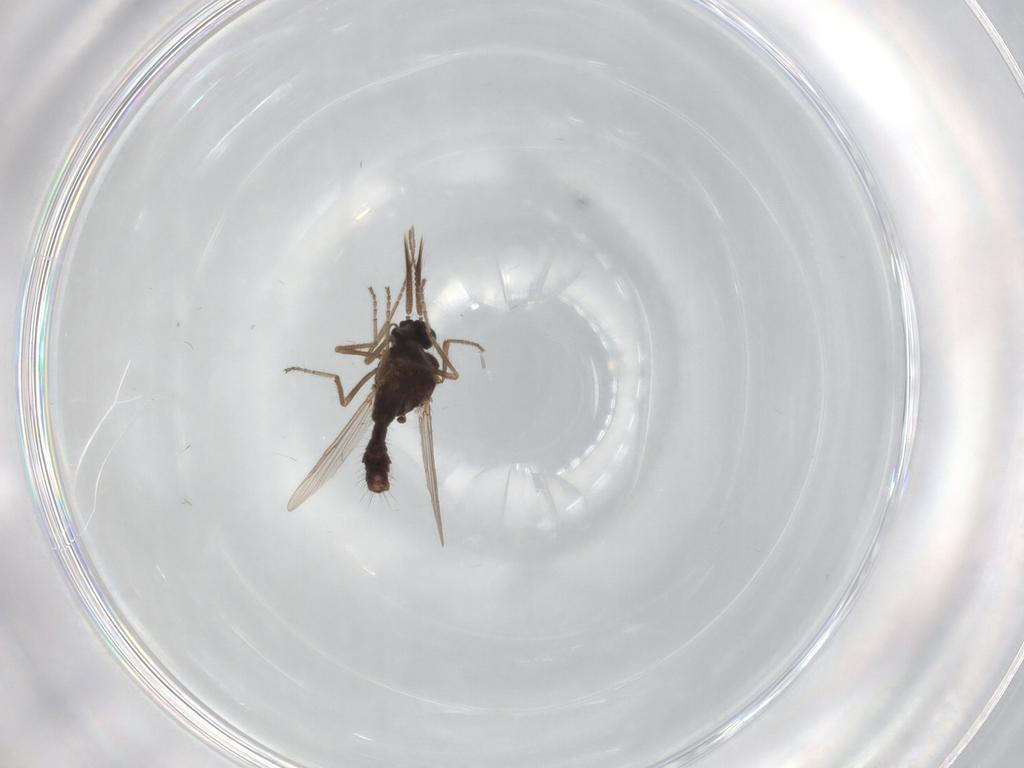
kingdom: Animalia
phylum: Arthropoda
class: Insecta
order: Diptera
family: Ceratopogonidae
